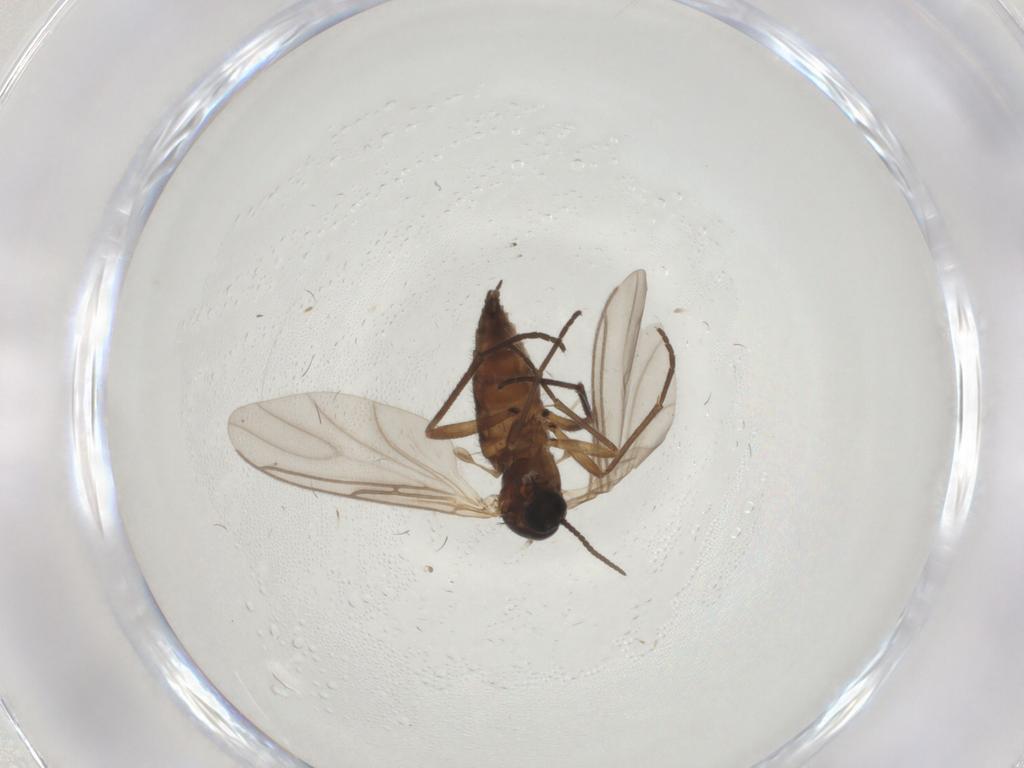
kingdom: Animalia
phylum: Arthropoda
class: Insecta
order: Diptera
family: Sciaridae
